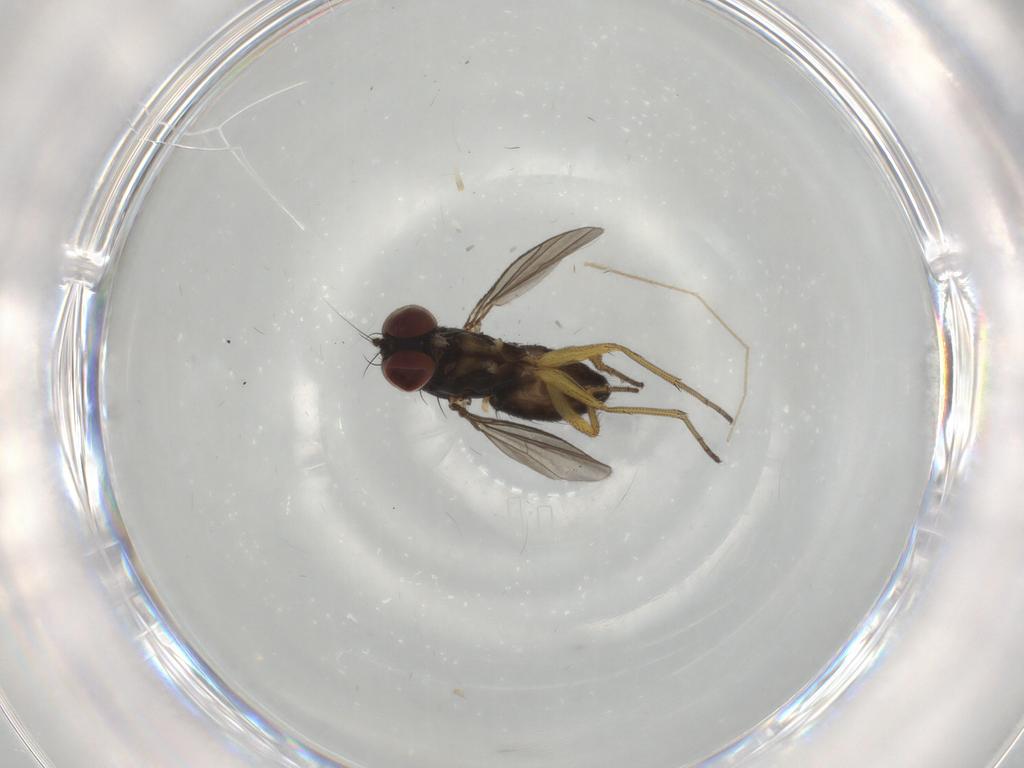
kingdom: Animalia
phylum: Arthropoda
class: Insecta
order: Diptera
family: Dolichopodidae
